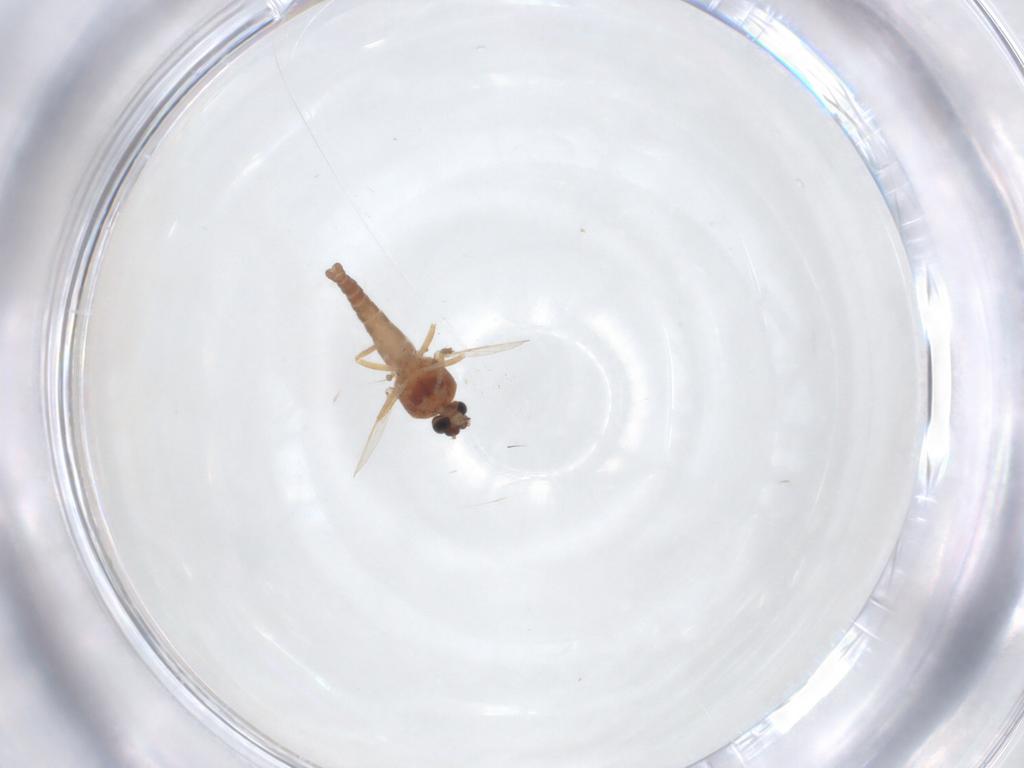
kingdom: Animalia
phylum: Arthropoda
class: Insecta
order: Diptera
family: Ceratopogonidae
